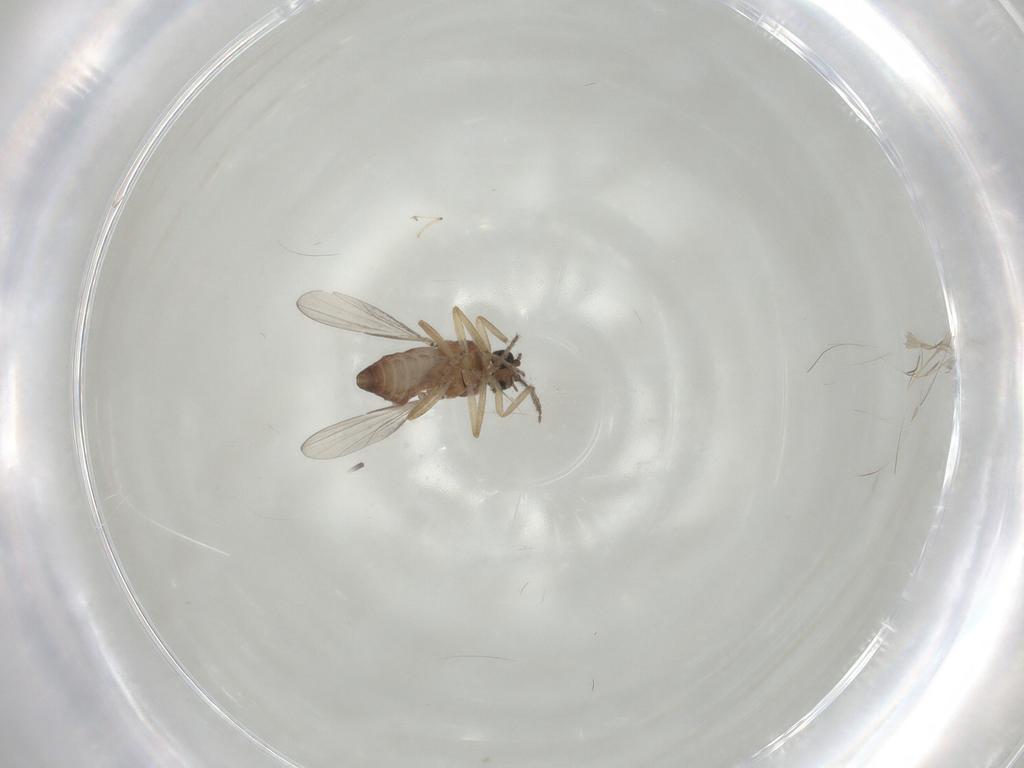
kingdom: Animalia
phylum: Arthropoda
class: Insecta
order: Diptera
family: Ceratopogonidae
